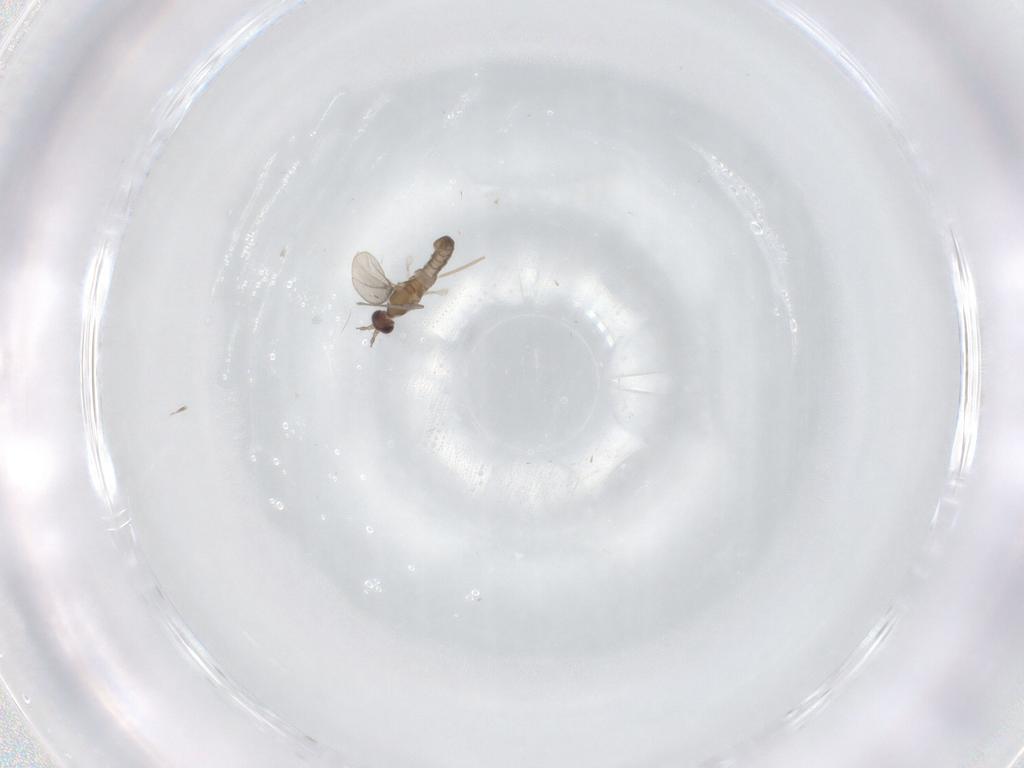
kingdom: Animalia
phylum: Arthropoda
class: Insecta
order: Diptera
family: Cecidomyiidae
